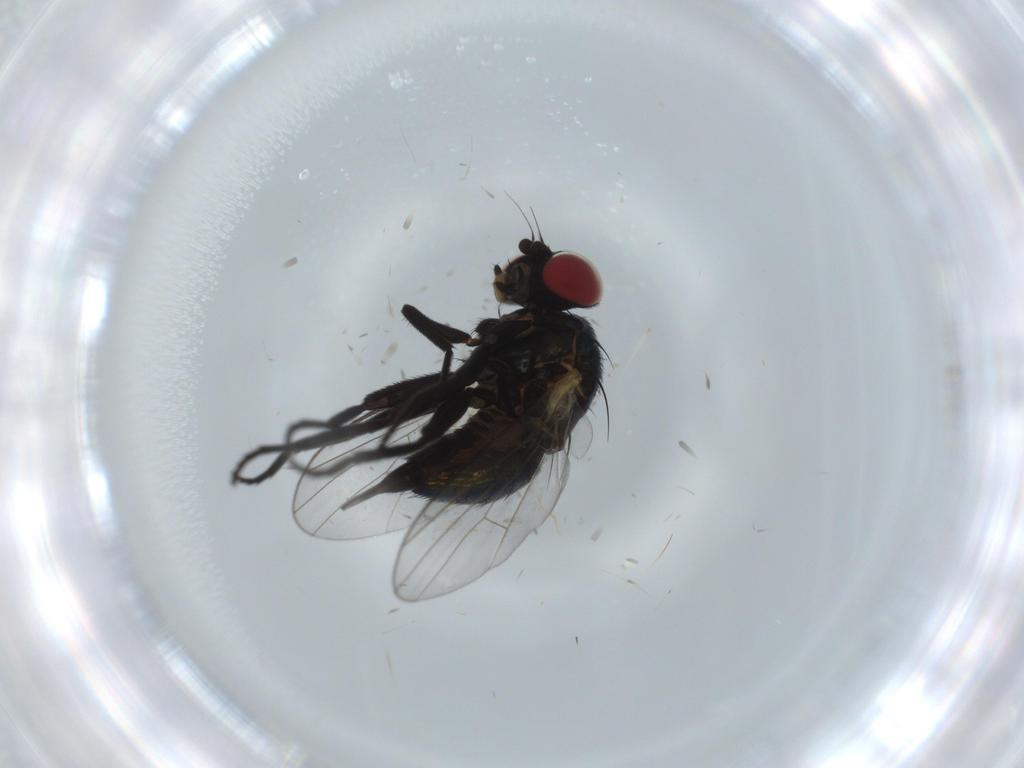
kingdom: Animalia
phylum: Arthropoda
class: Insecta
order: Diptera
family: Agromyzidae
